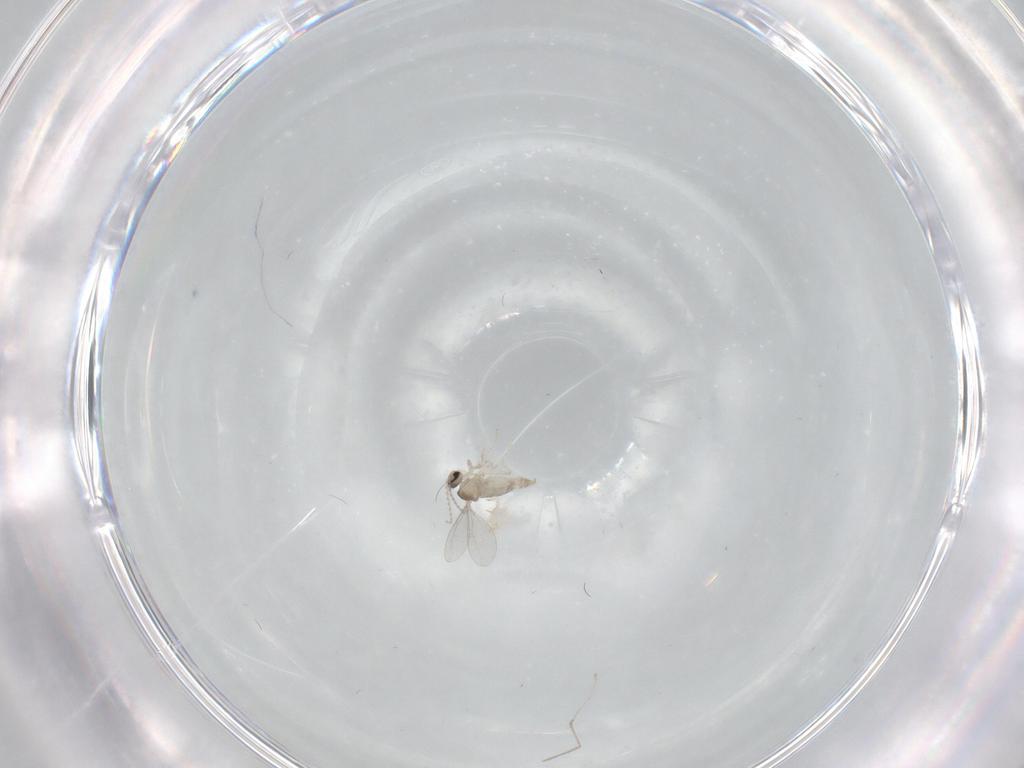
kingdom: Animalia
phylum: Arthropoda
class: Insecta
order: Diptera
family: Cecidomyiidae
